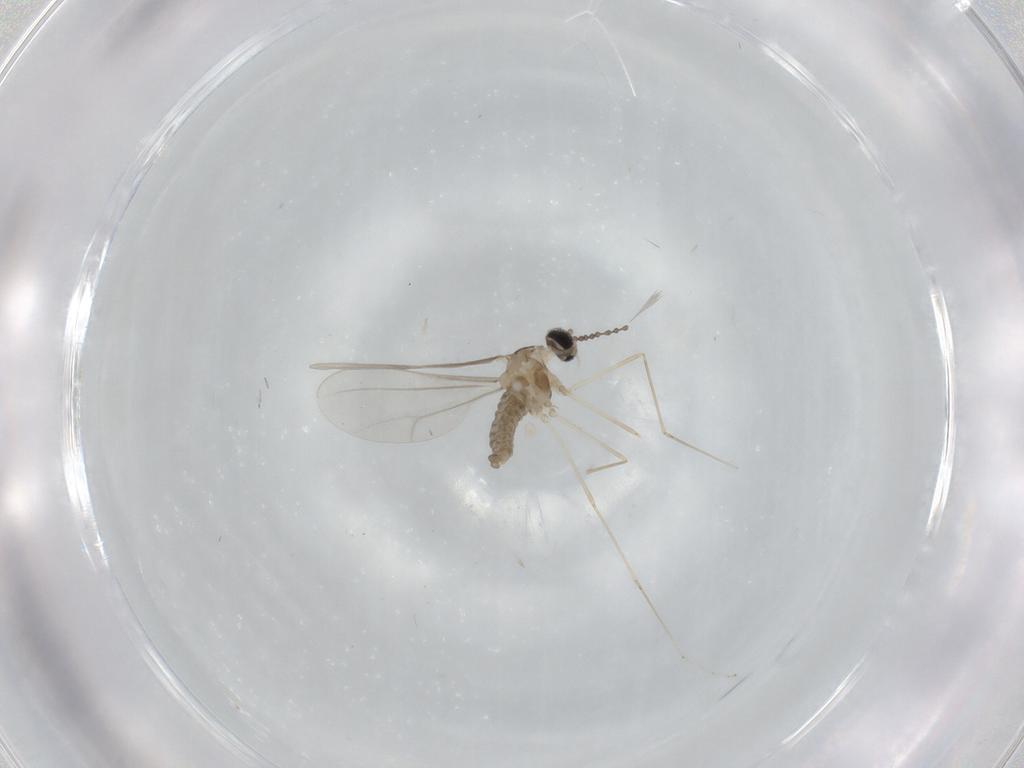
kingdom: Animalia
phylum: Arthropoda
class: Insecta
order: Diptera
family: Cecidomyiidae
